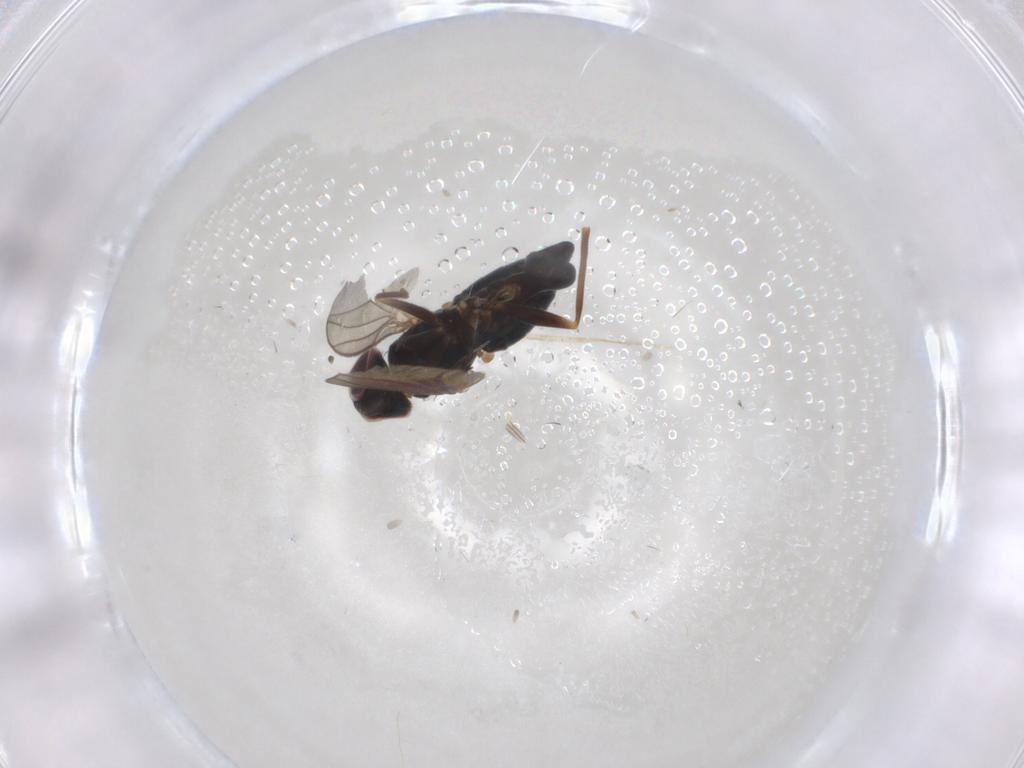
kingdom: Animalia
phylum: Arthropoda
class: Insecta
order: Diptera
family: Dolichopodidae
